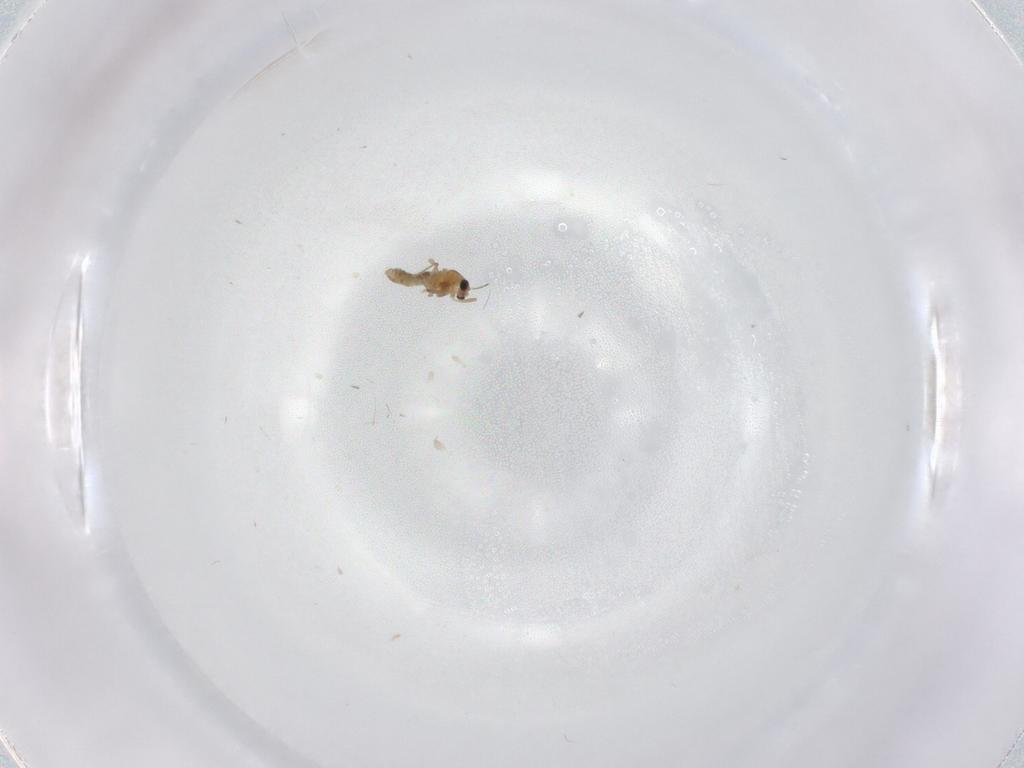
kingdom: Animalia
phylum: Arthropoda
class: Insecta
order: Diptera
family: Chironomidae
